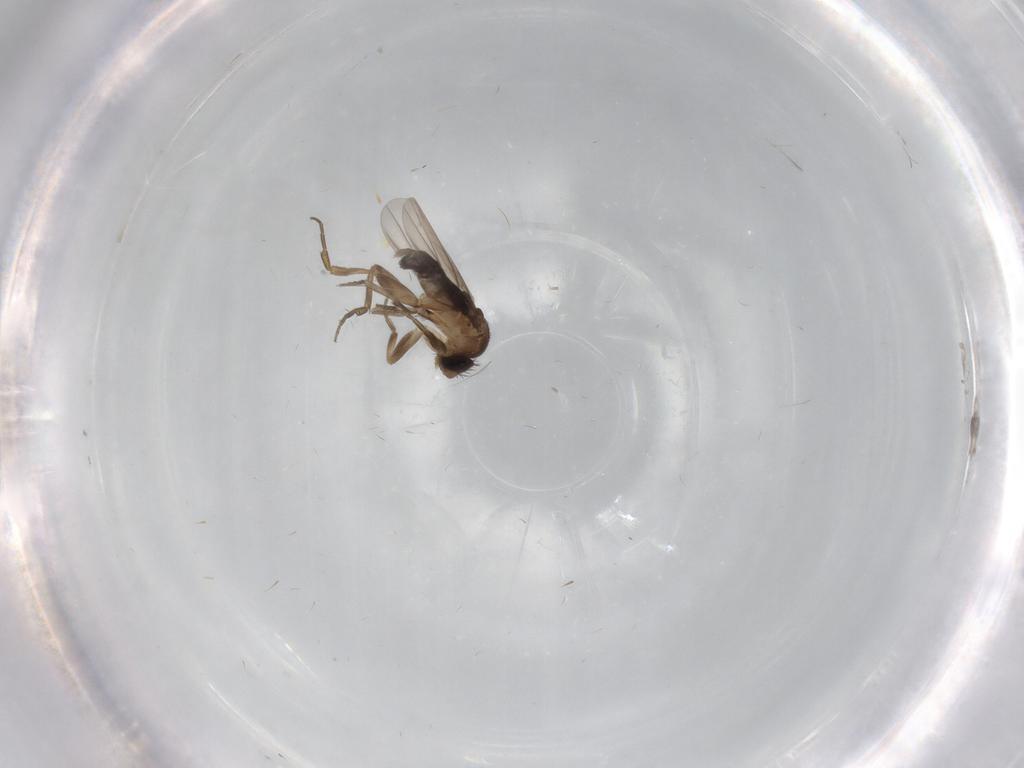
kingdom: Animalia
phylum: Arthropoda
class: Insecta
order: Diptera
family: Phoridae
